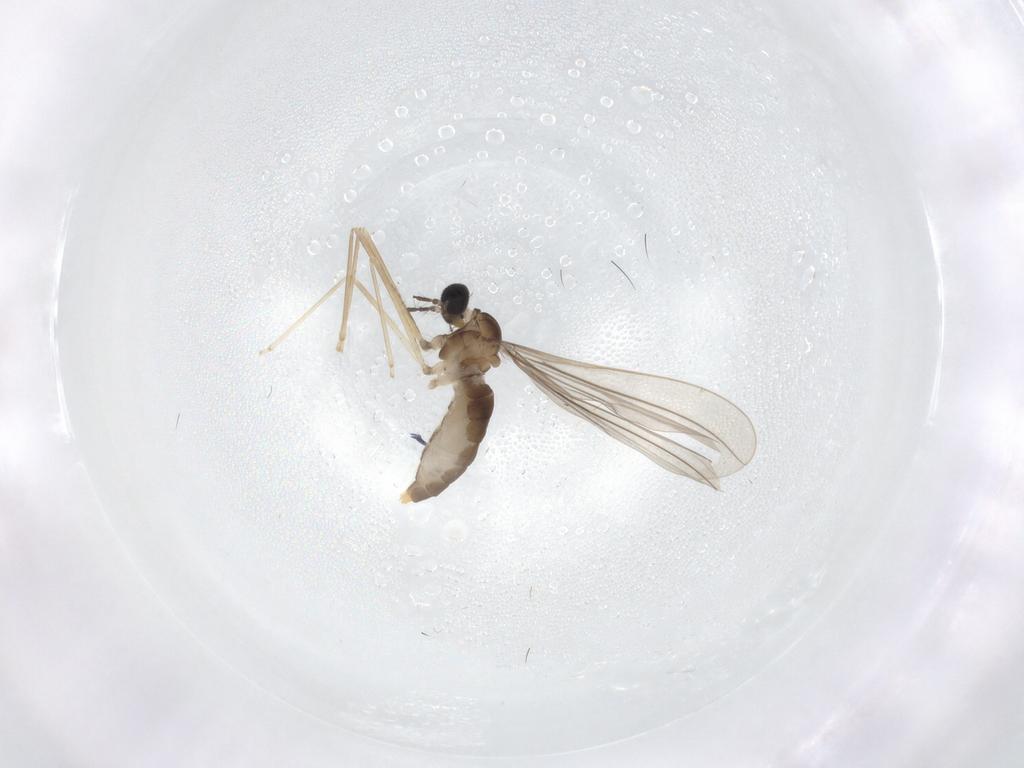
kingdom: Animalia
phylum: Arthropoda
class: Insecta
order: Diptera
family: Cecidomyiidae
